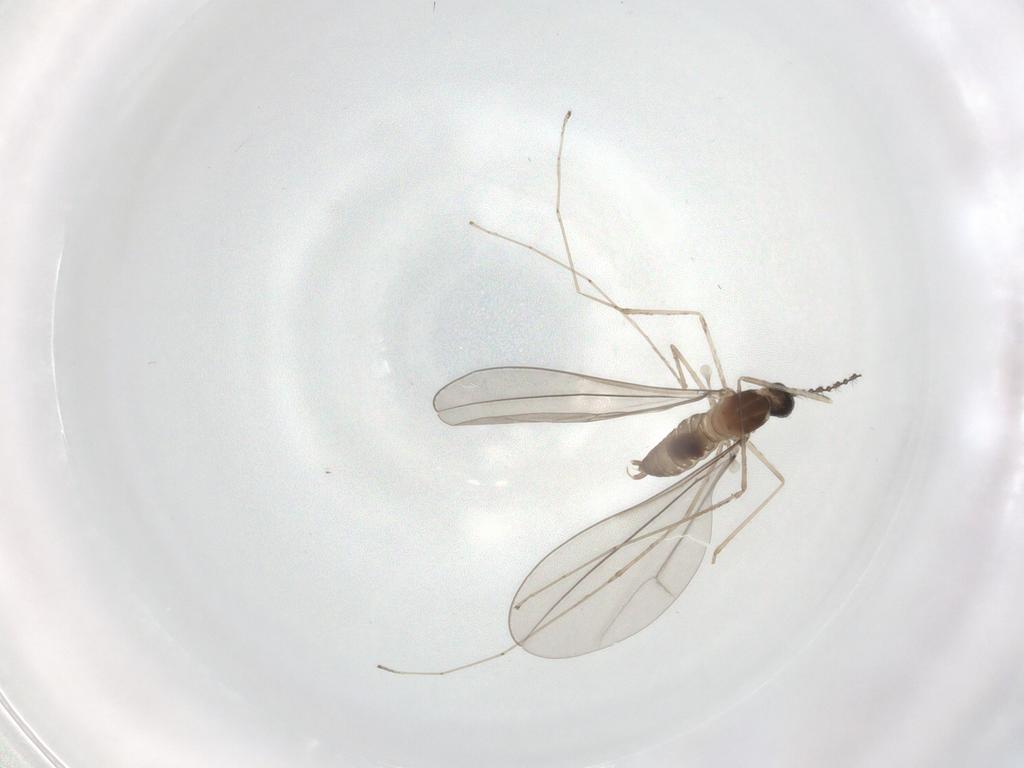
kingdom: Animalia
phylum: Arthropoda
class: Insecta
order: Diptera
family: Cecidomyiidae
